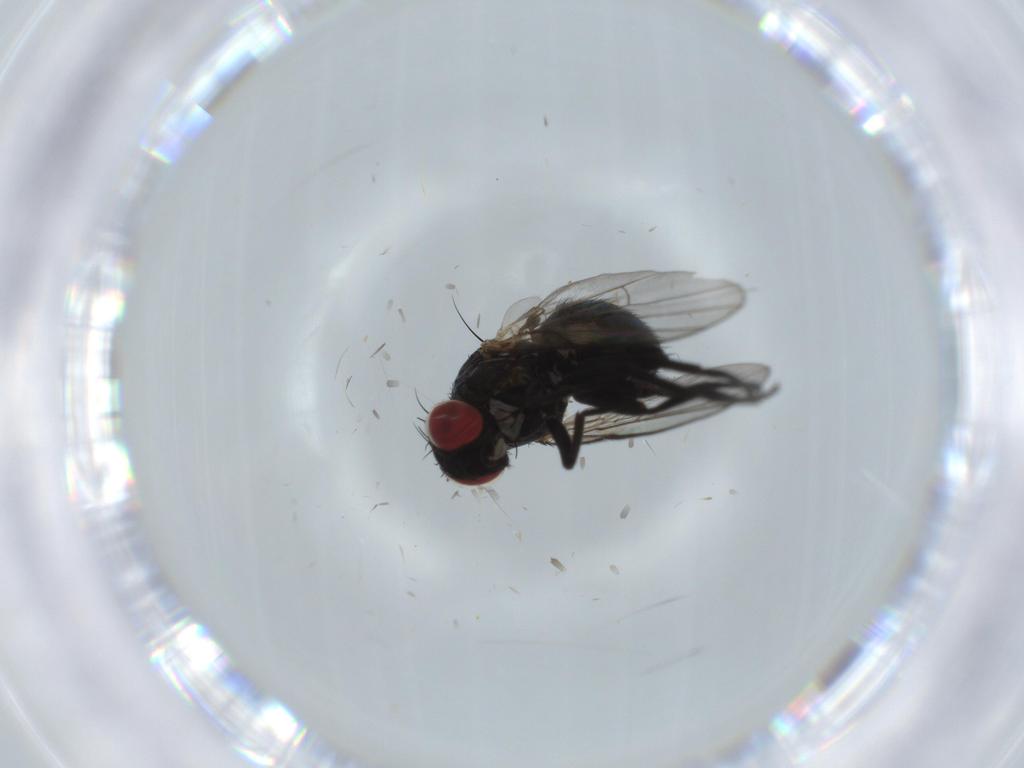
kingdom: Animalia
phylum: Arthropoda
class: Insecta
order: Diptera
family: Sphaeroceridae
